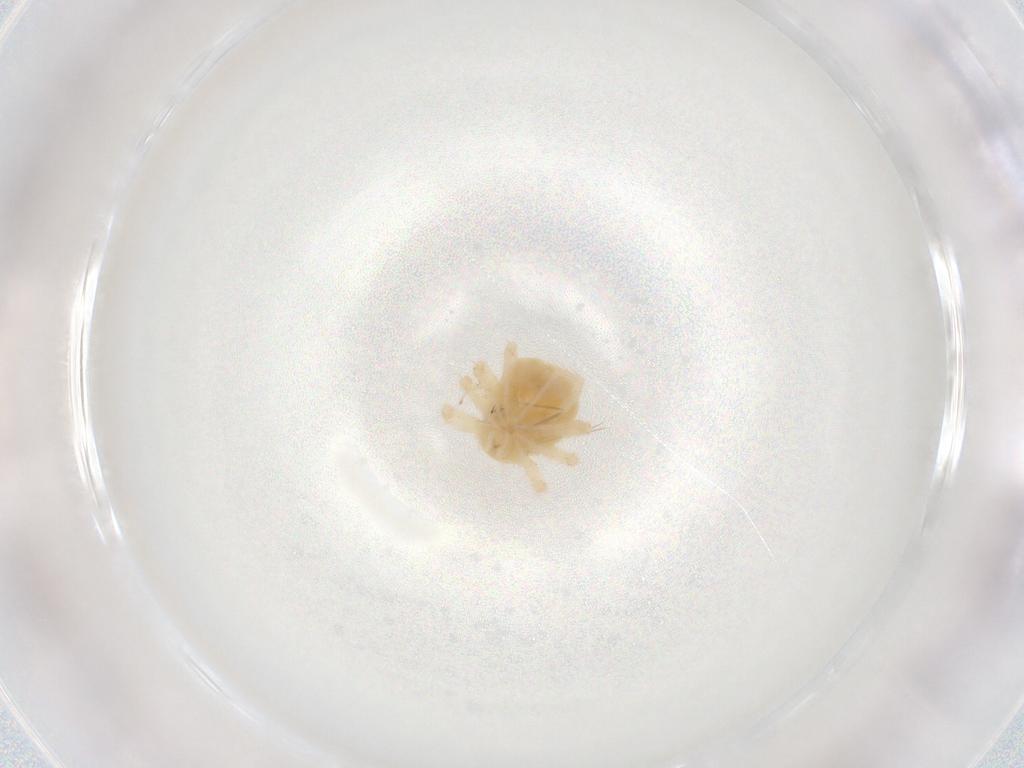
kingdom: Animalia
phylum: Arthropoda
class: Arachnida
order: Trombidiformes
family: Anystidae
